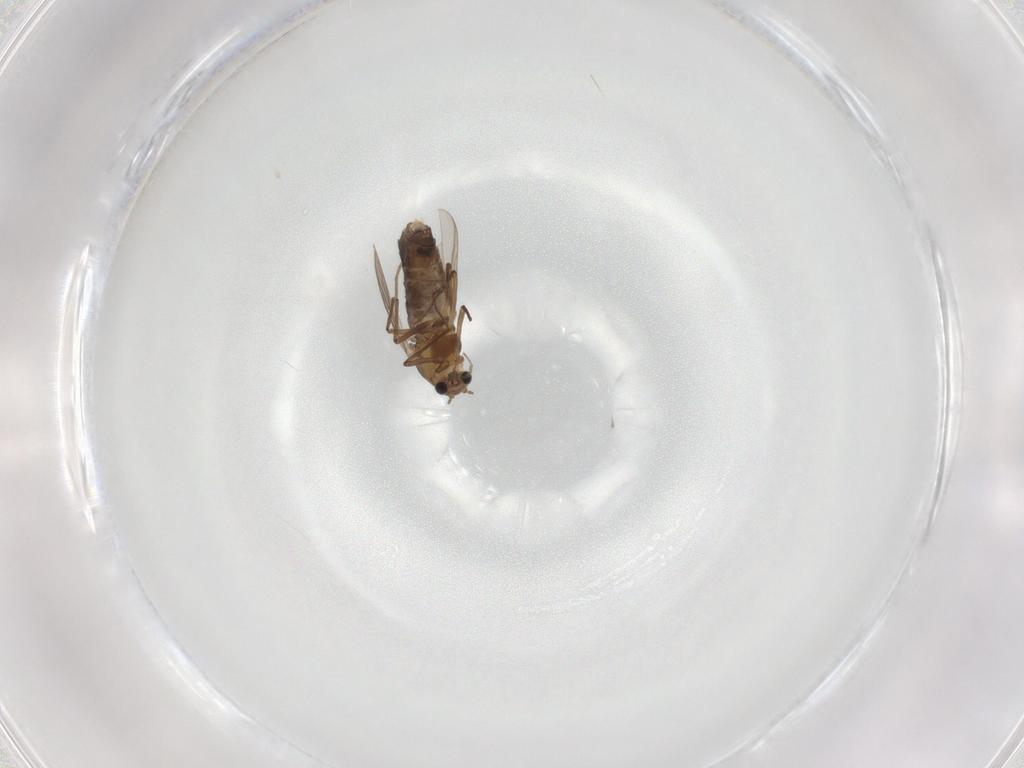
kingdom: Animalia
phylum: Arthropoda
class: Insecta
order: Diptera
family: Chironomidae
